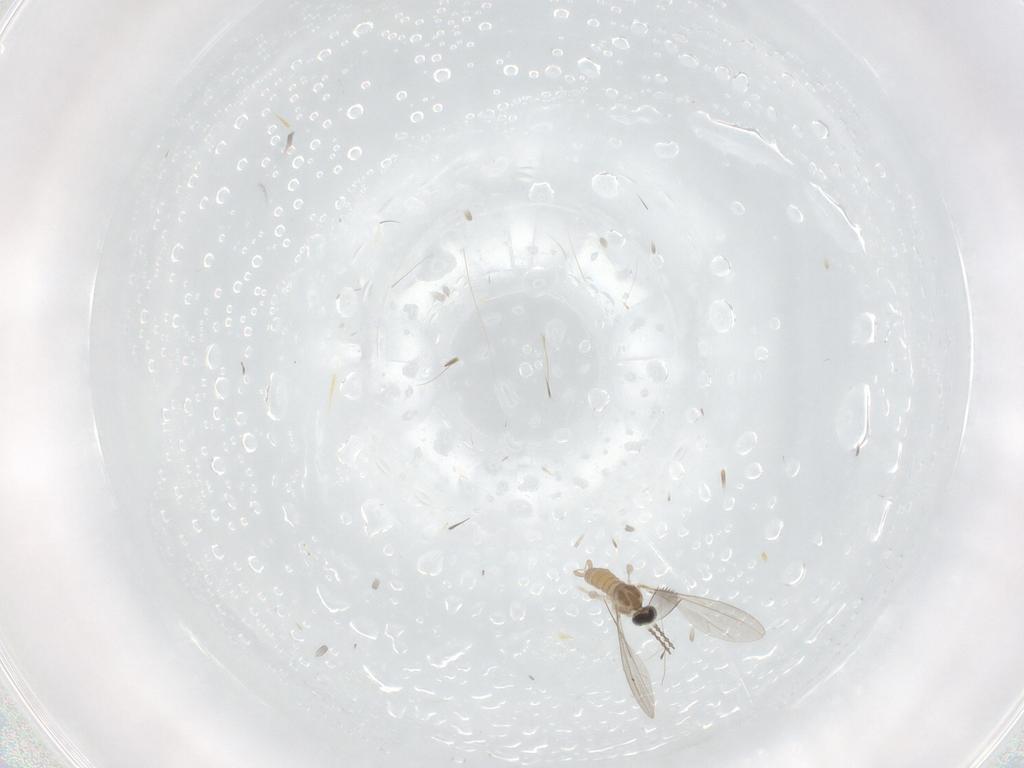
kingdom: Animalia
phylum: Arthropoda
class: Insecta
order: Diptera
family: Cecidomyiidae
